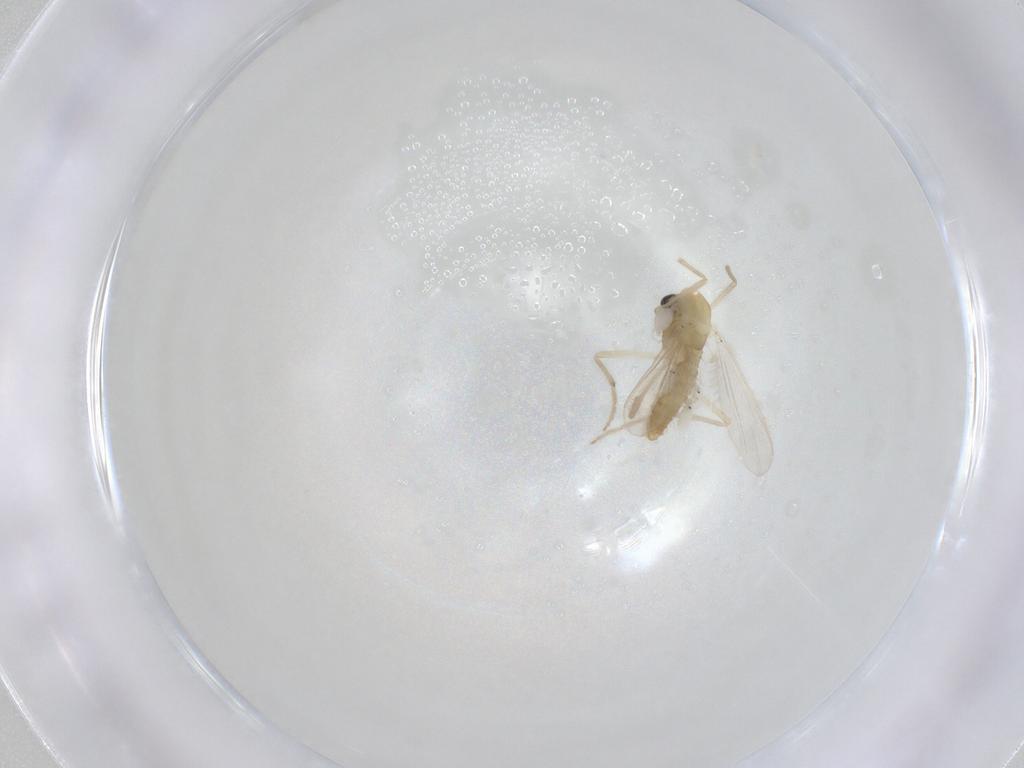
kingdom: Animalia
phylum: Arthropoda
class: Insecta
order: Diptera
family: Chironomidae
